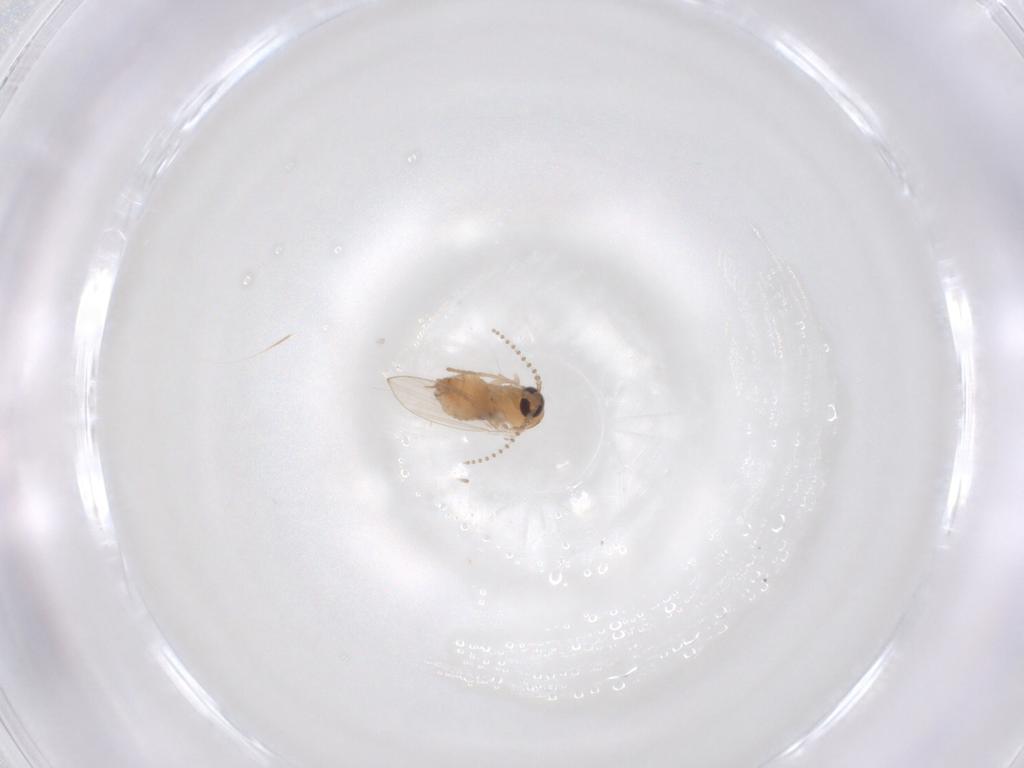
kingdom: Animalia
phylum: Arthropoda
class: Insecta
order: Diptera
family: Psychodidae
